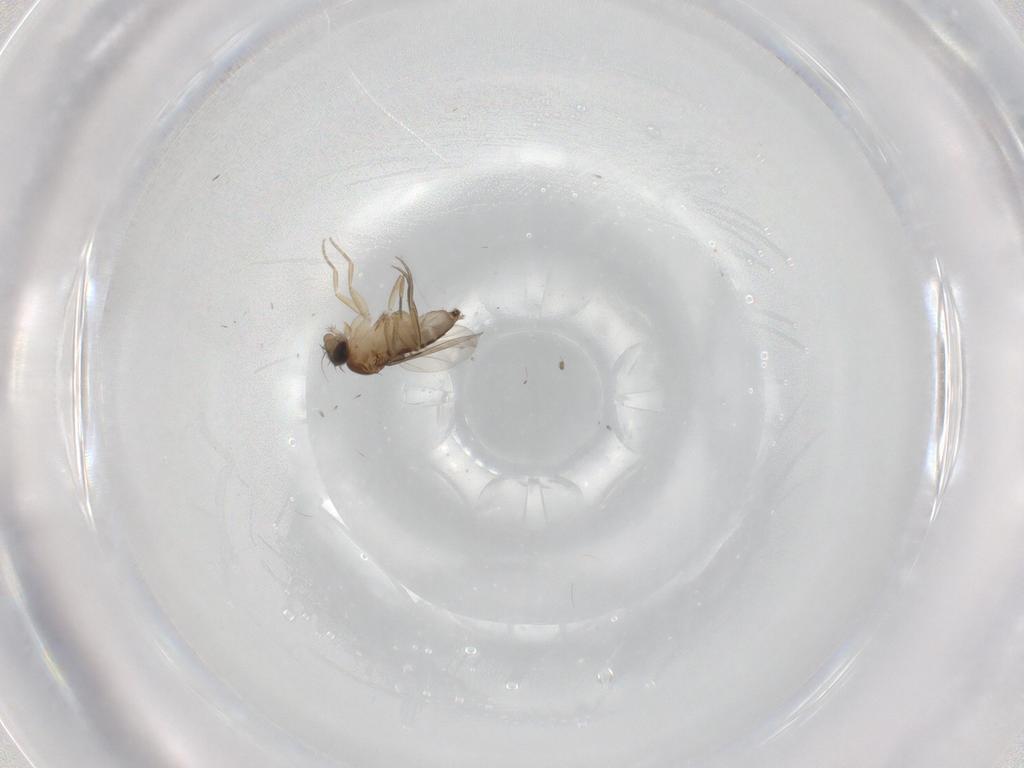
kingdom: Animalia
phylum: Arthropoda
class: Insecta
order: Diptera
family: Phoridae
